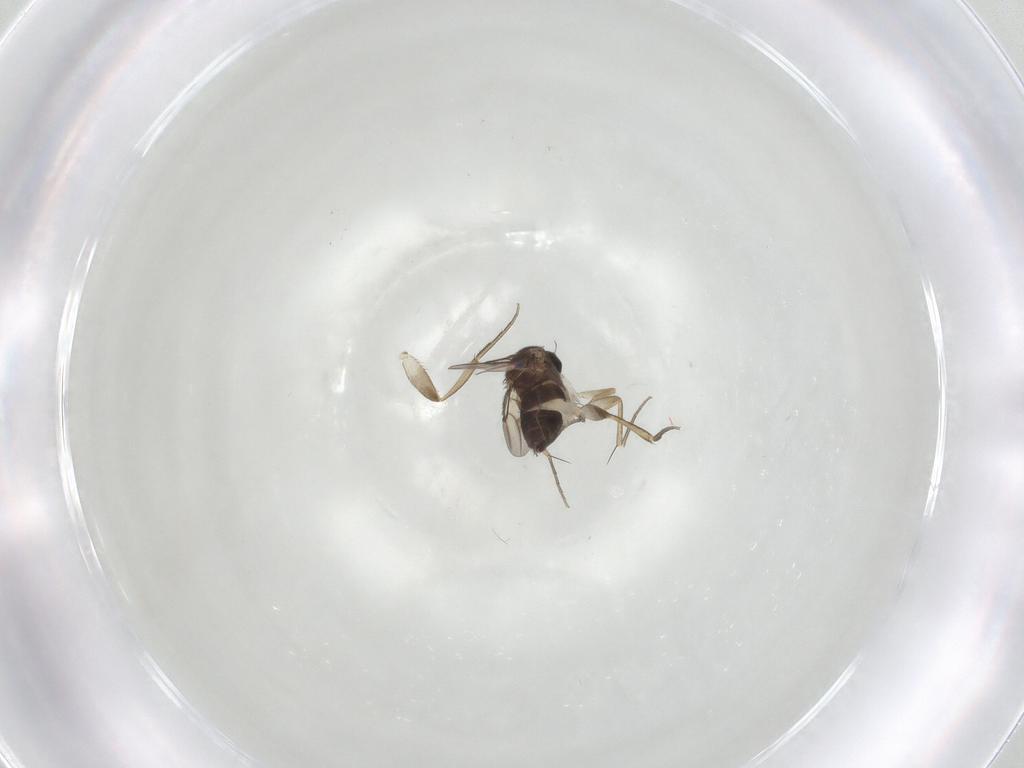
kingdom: Animalia
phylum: Arthropoda
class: Insecta
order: Diptera
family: Phoridae
